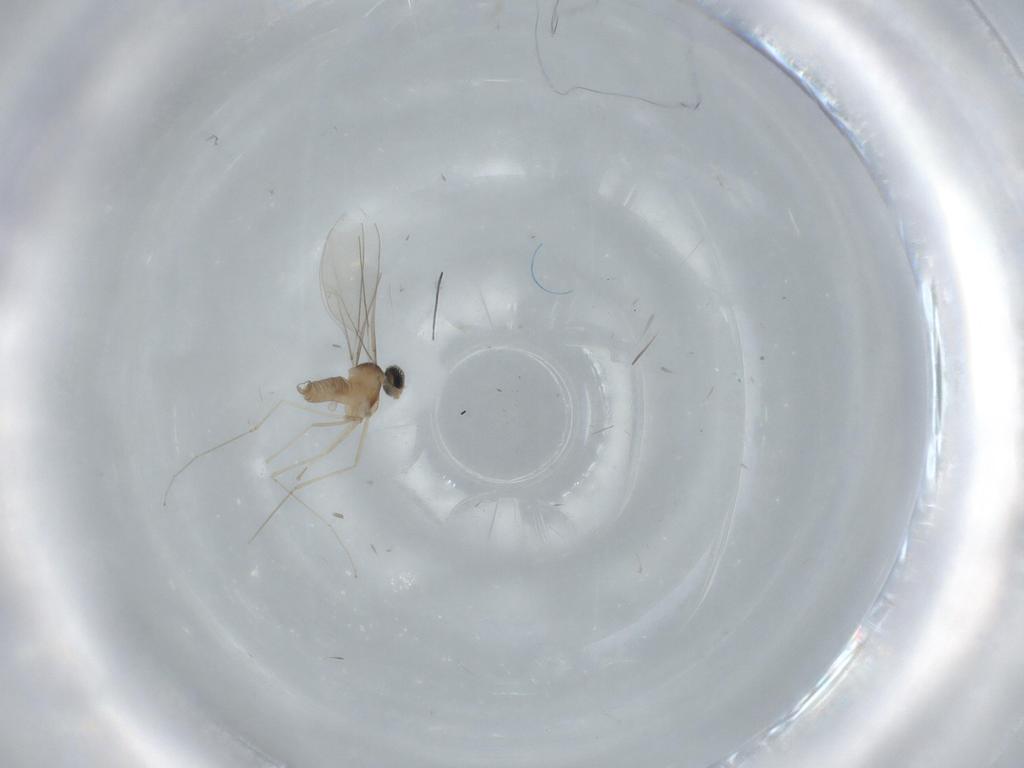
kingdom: Animalia
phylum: Arthropoda
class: Insecta
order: Diptera
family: Cecidomyiidae
